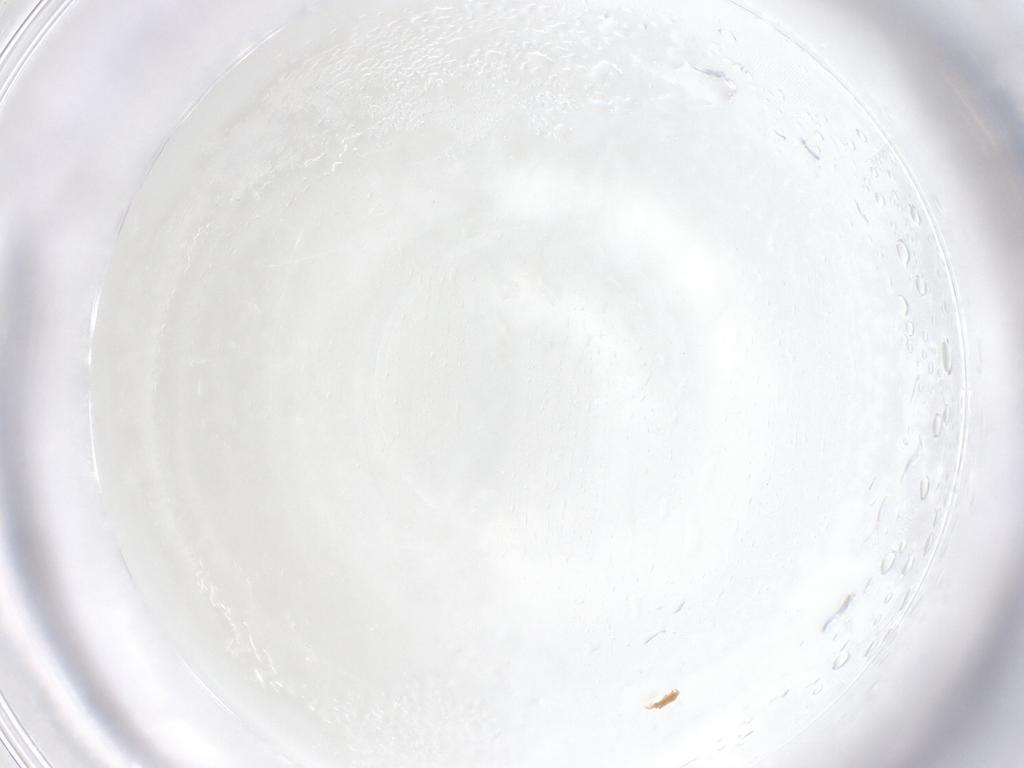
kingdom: Animalia
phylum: Arthropoda
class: Arachnida
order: Trombidiformes
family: Pygmephoridae
